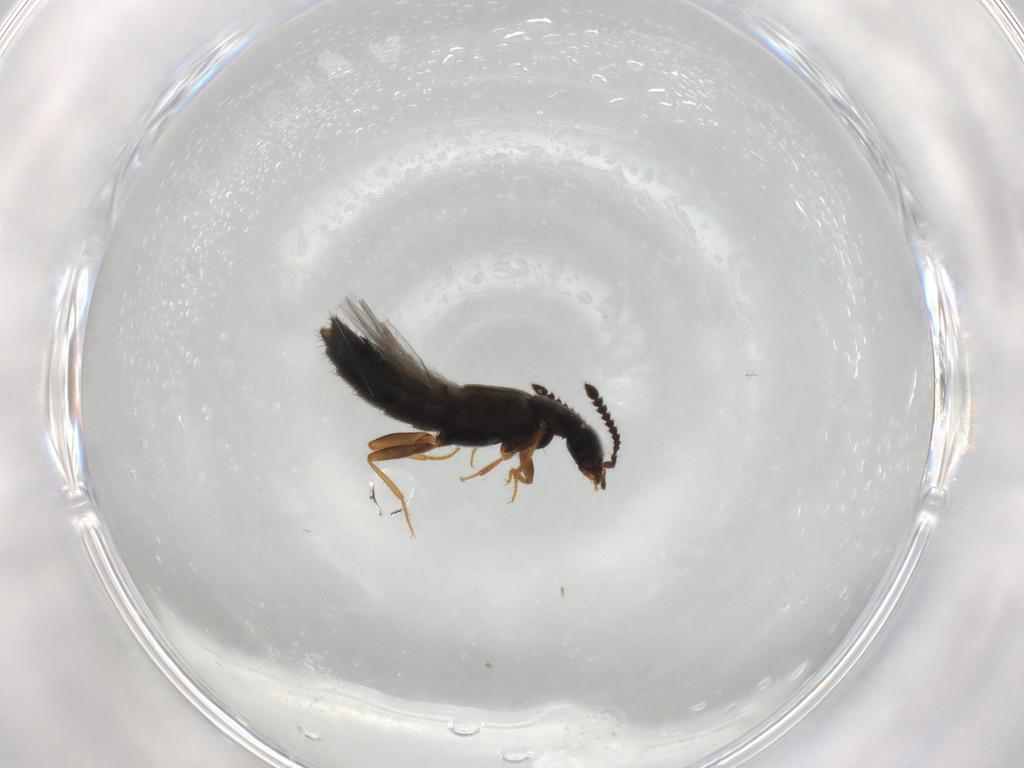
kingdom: Animalia
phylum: Arthropoda
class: Insecta
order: Coleoptera
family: Staphylinidae
